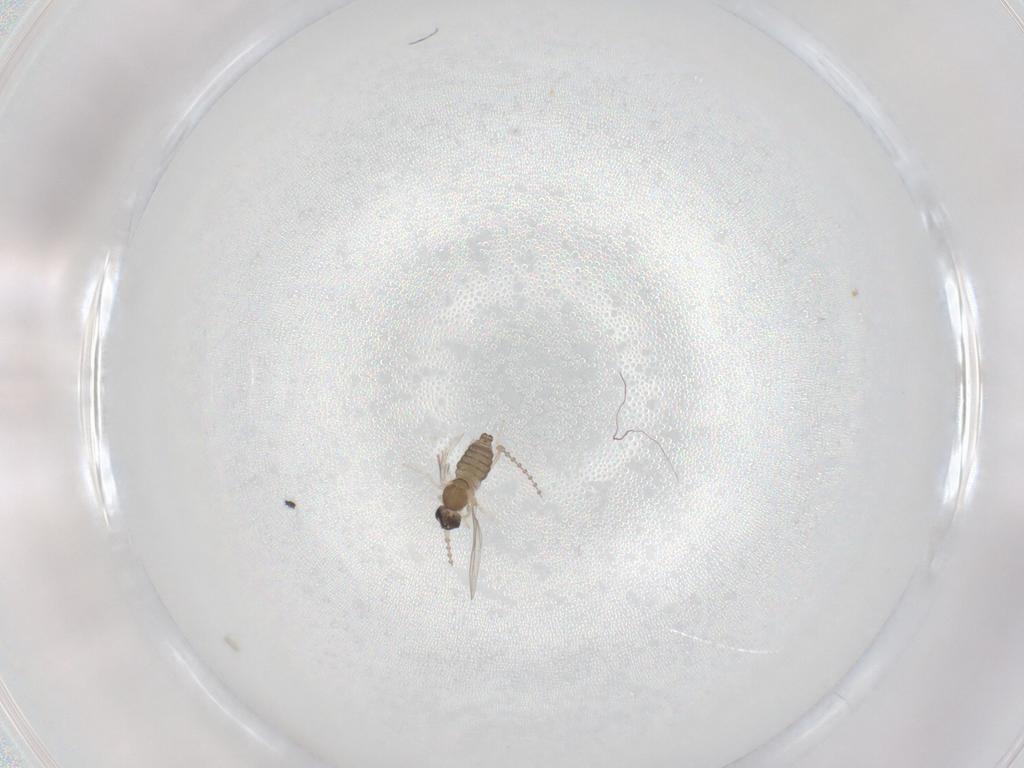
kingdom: Animalia
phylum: Arthropoda
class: Insecta
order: Diptera
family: Cecidomyiidae
